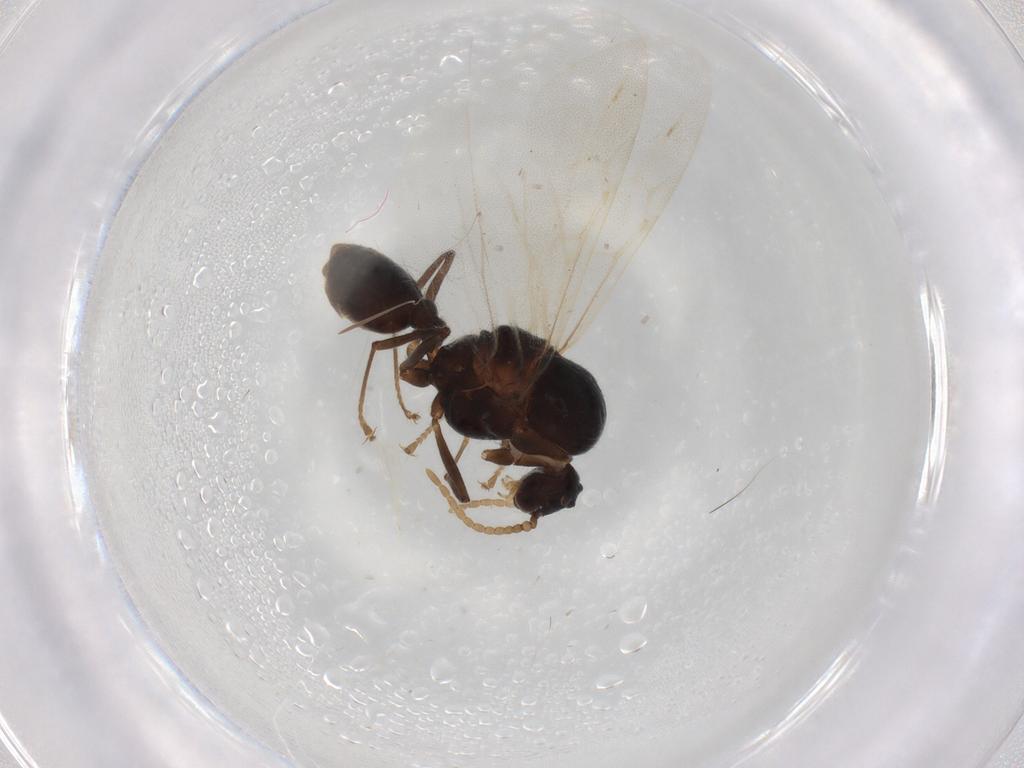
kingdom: Animalia
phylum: Arthropoda
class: Insecta
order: Hymenoptera
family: Formicidae
